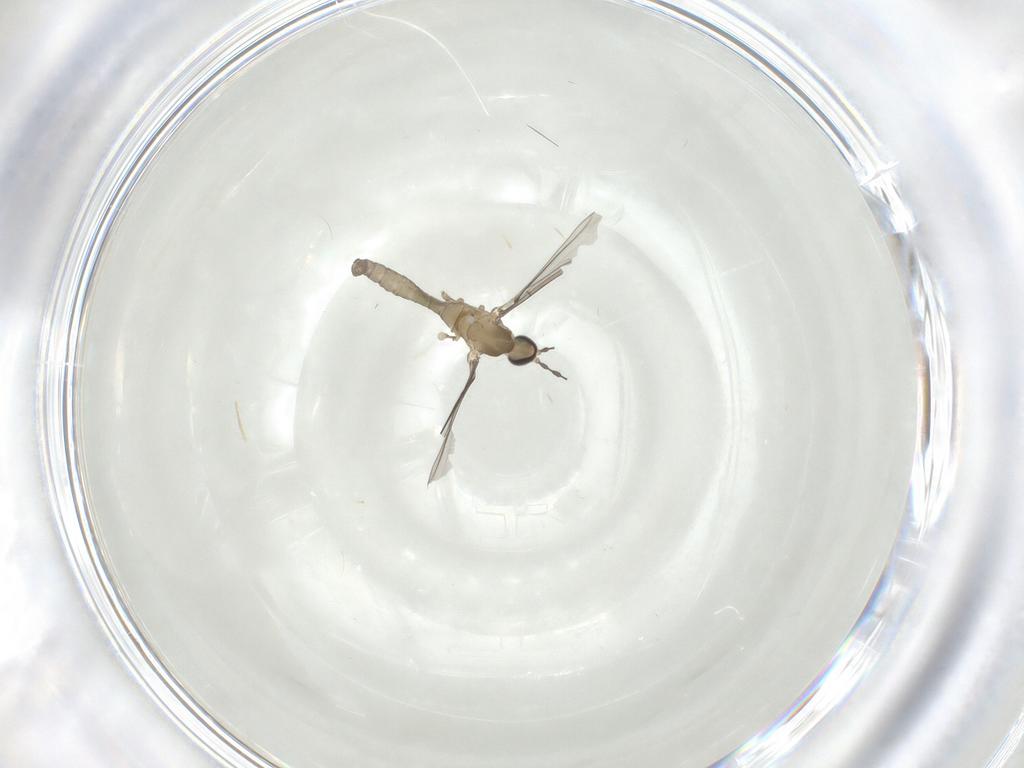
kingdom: Animalia
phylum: Arthropoda
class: Insecta
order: Diptera
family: Cecidomyiidae
